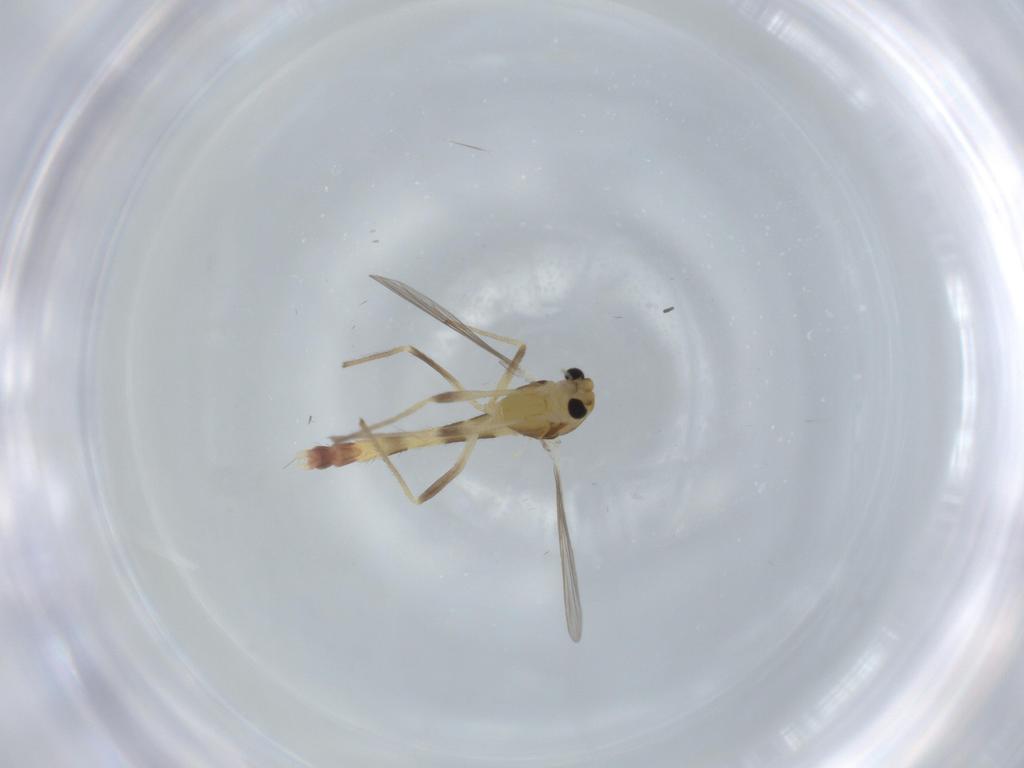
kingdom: Animalia
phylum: Arthropoda
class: Insecta
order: Diptera
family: Chironomidae
